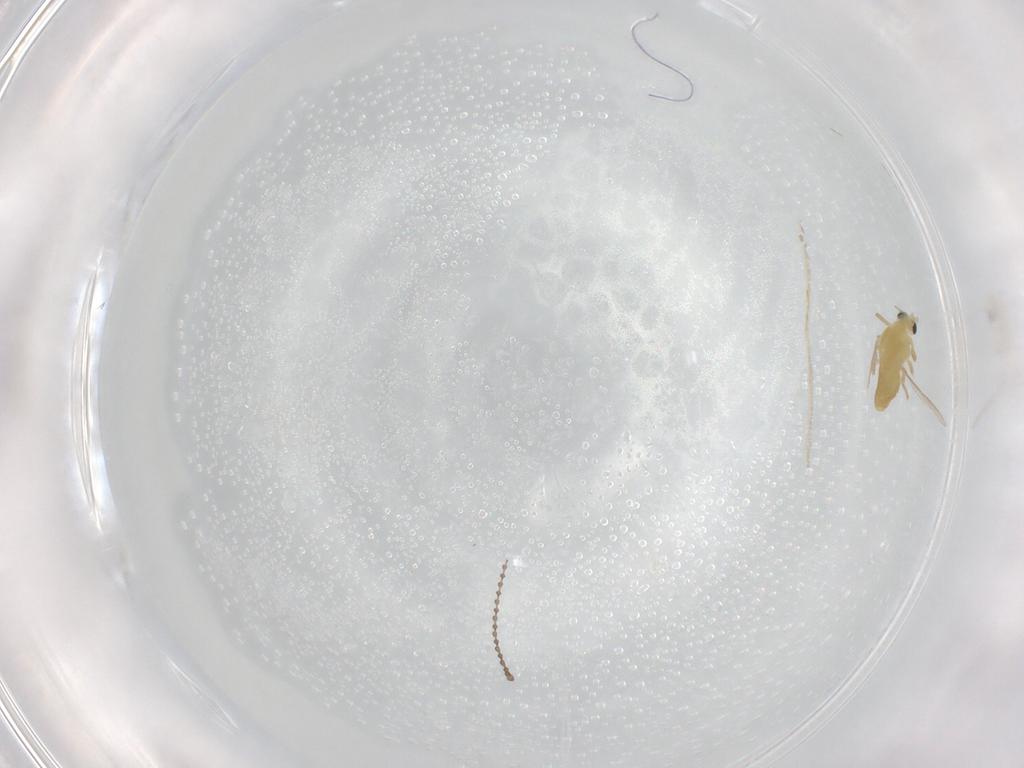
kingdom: Animalia
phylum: Arthropoda
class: Insecta
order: Diptera
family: Chironomidae
